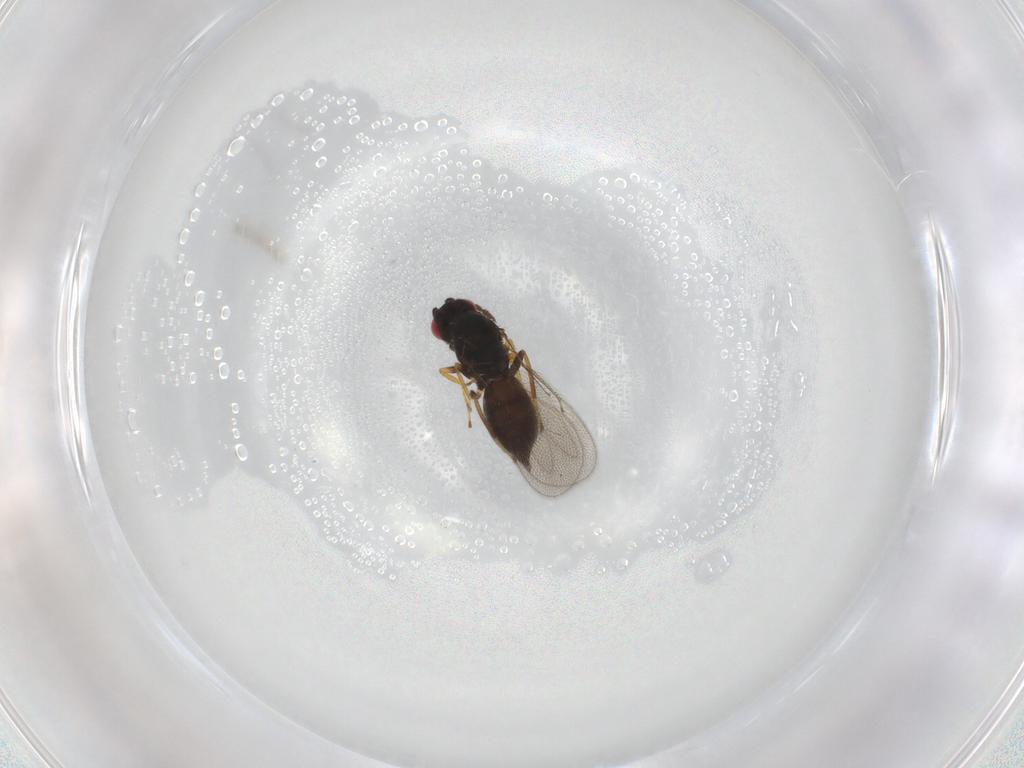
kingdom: Animalia
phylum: Arthropoda
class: Insecta
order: Hymenoptera
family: Eulophidae
